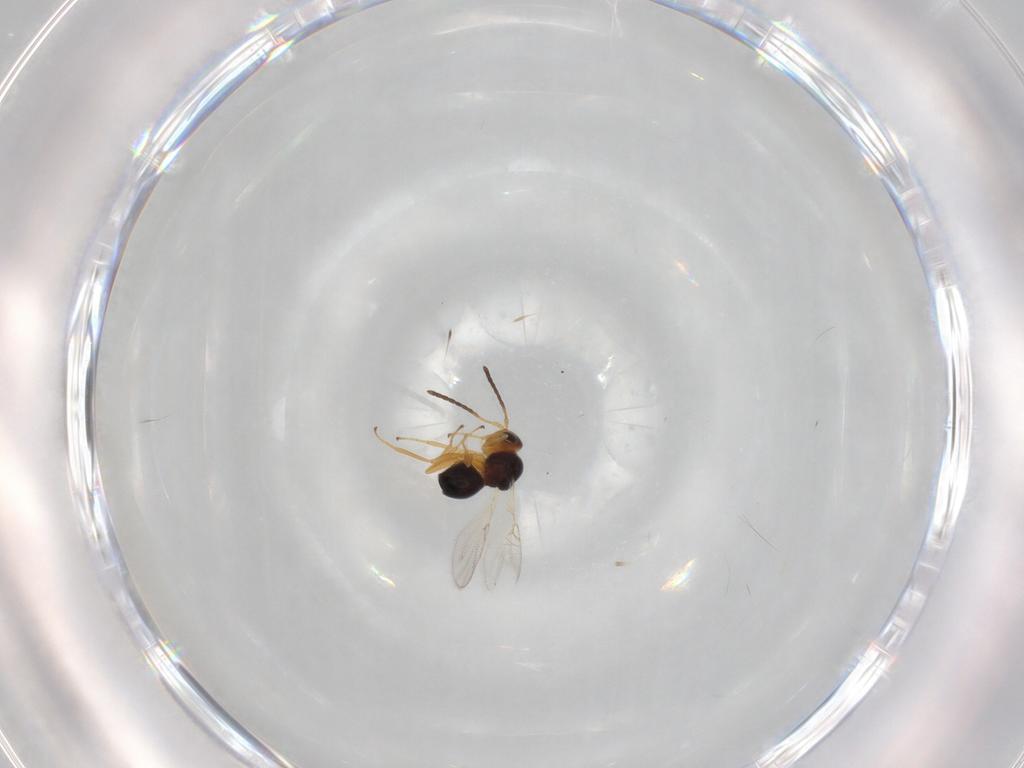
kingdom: Animalia
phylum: Arthropoda
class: Insecta
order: Hymenoptera
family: Figitidae
